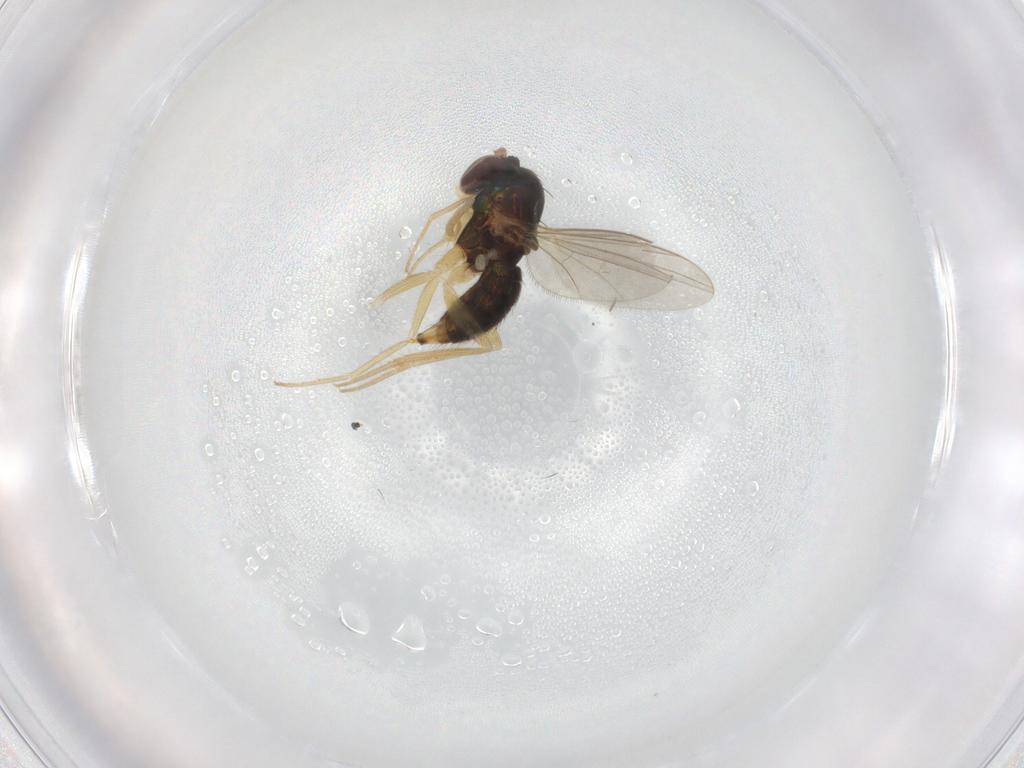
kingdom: Animalia
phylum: Arthropoda
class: Insecta
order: Diptera
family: Dolichopodidae
